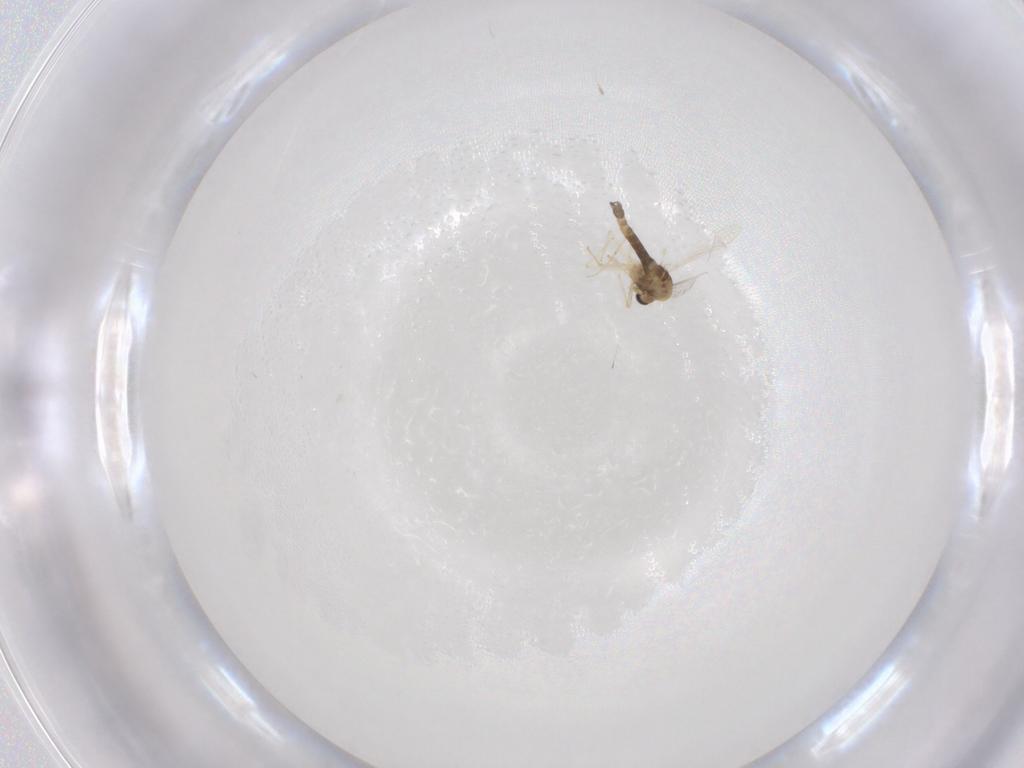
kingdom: Animalia
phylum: Arthropoda
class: Insecta
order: Diptera
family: Chironomidae
